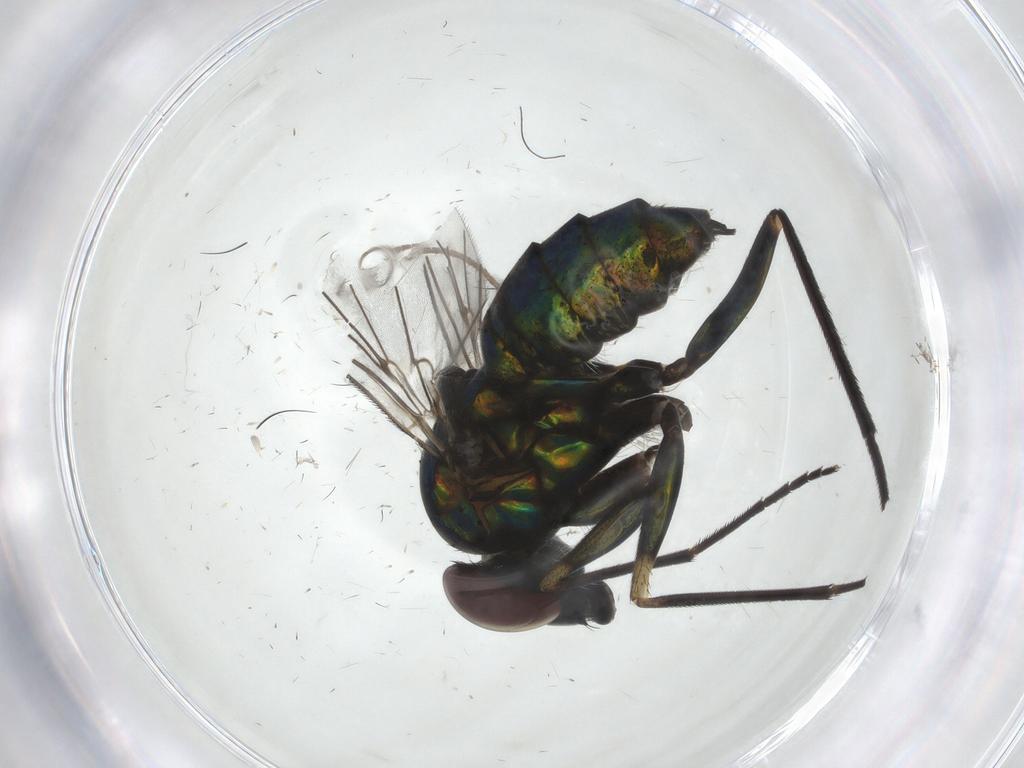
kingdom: Animalia
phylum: Arthropoda
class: Insecta
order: Diptera
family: Dolichopodidae
